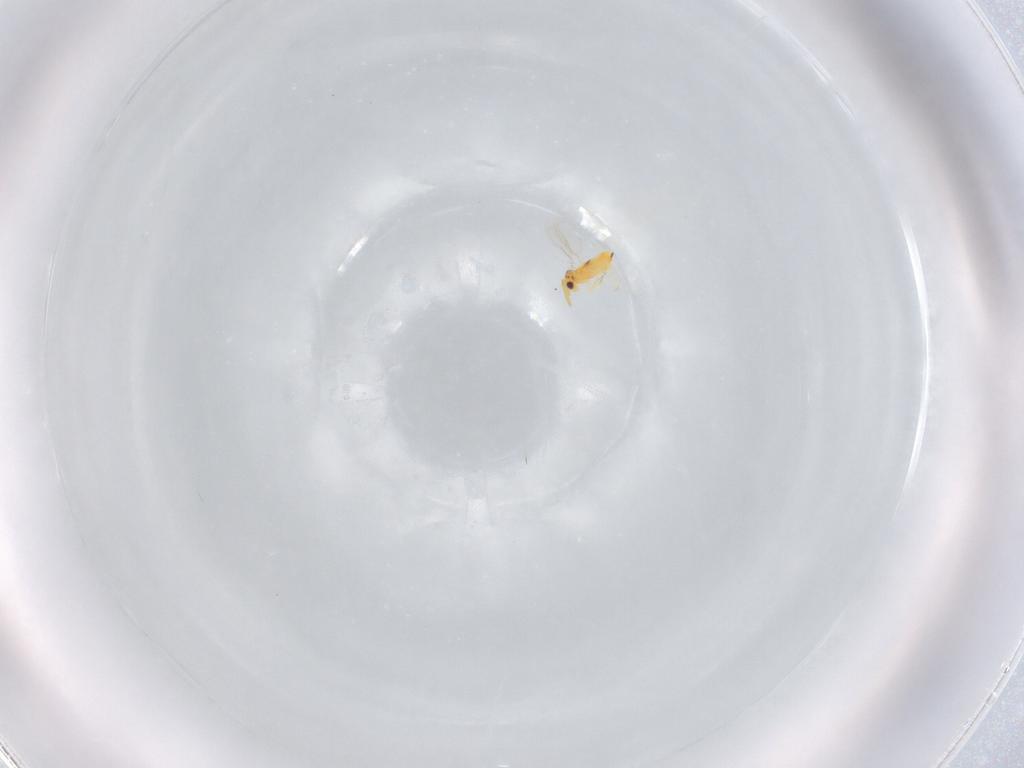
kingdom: Animalia
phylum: Arthropoda
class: Insecta
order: Hymenoptera
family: Aphelinidae
